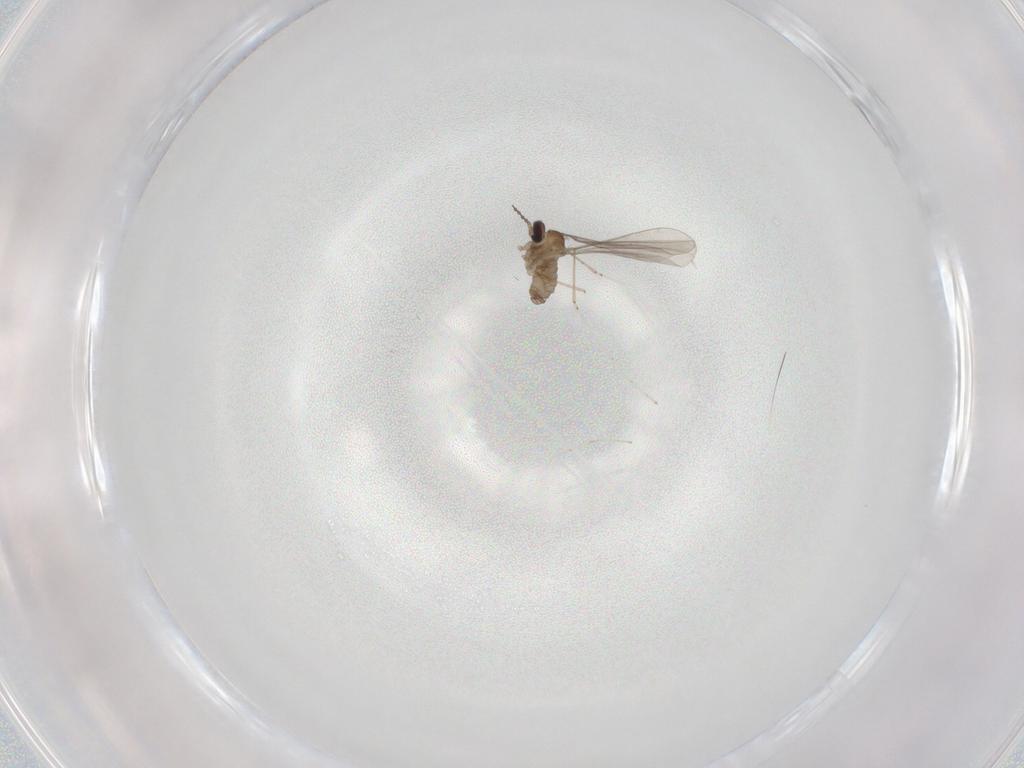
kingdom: Animalia
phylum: Arthropoda
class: Insecta
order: Diptera
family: Cecidomyiidae
